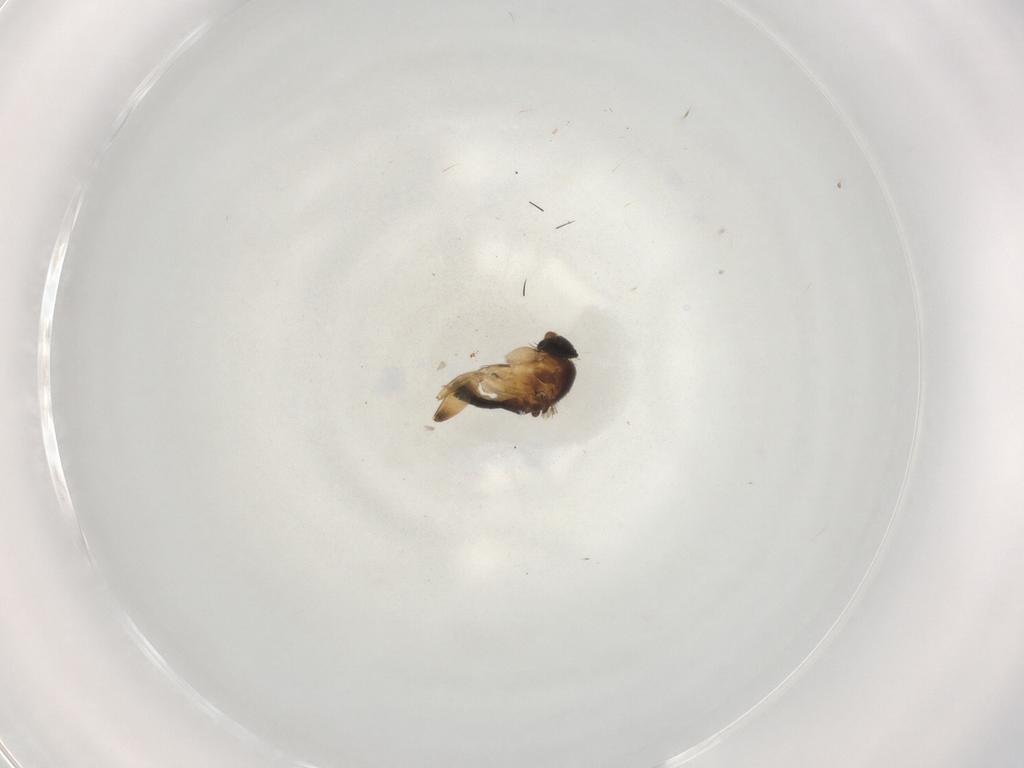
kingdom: Animalia
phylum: Arthropoda
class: Insecta
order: Diptera
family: Phoridae
